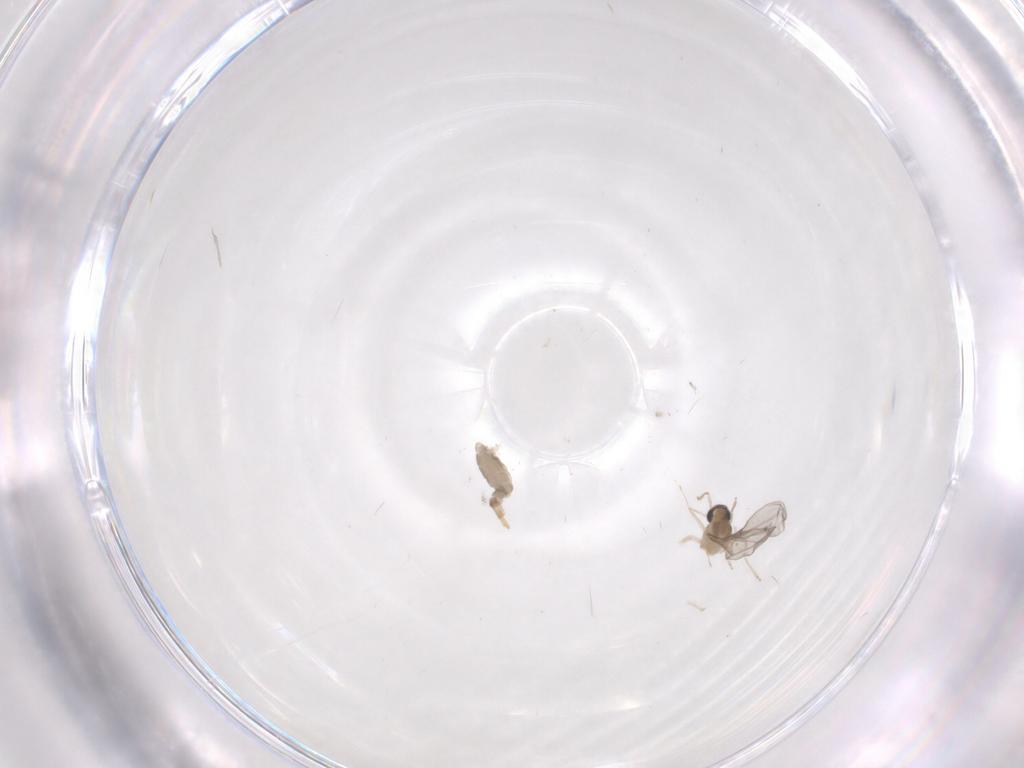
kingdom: Animalia
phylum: Arthropoda
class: Insecta
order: Diptera
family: Cecidomyiidae
